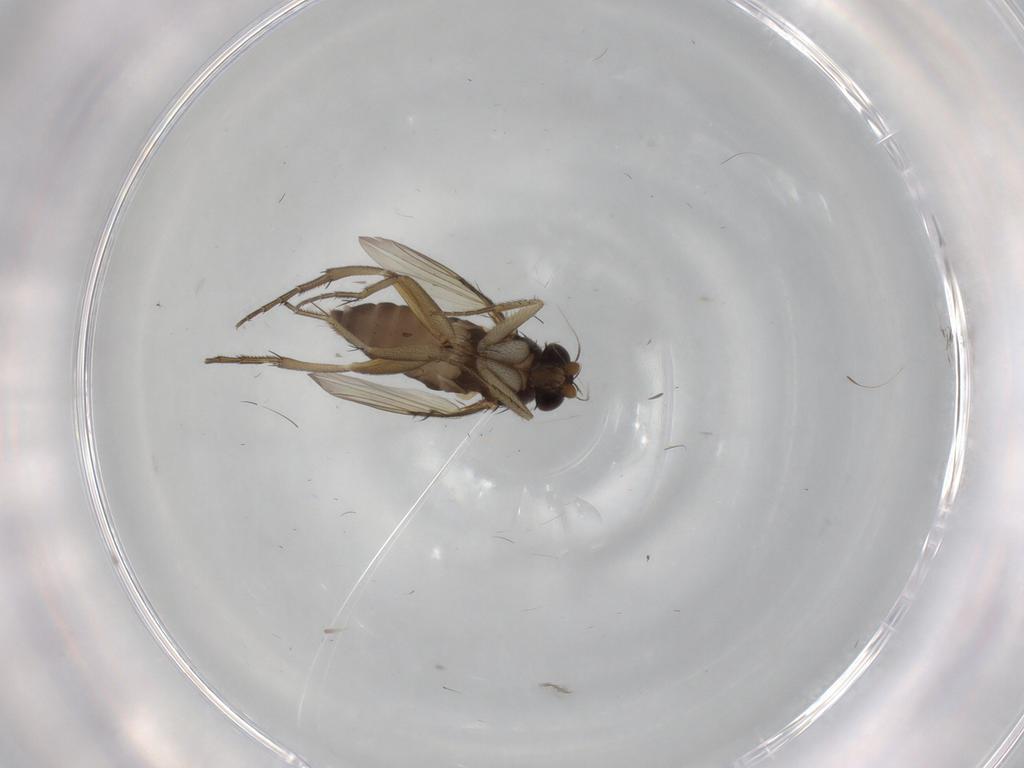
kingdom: Animalia
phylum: Arthropoda
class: Insecta
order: Diptera
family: Phoridae
